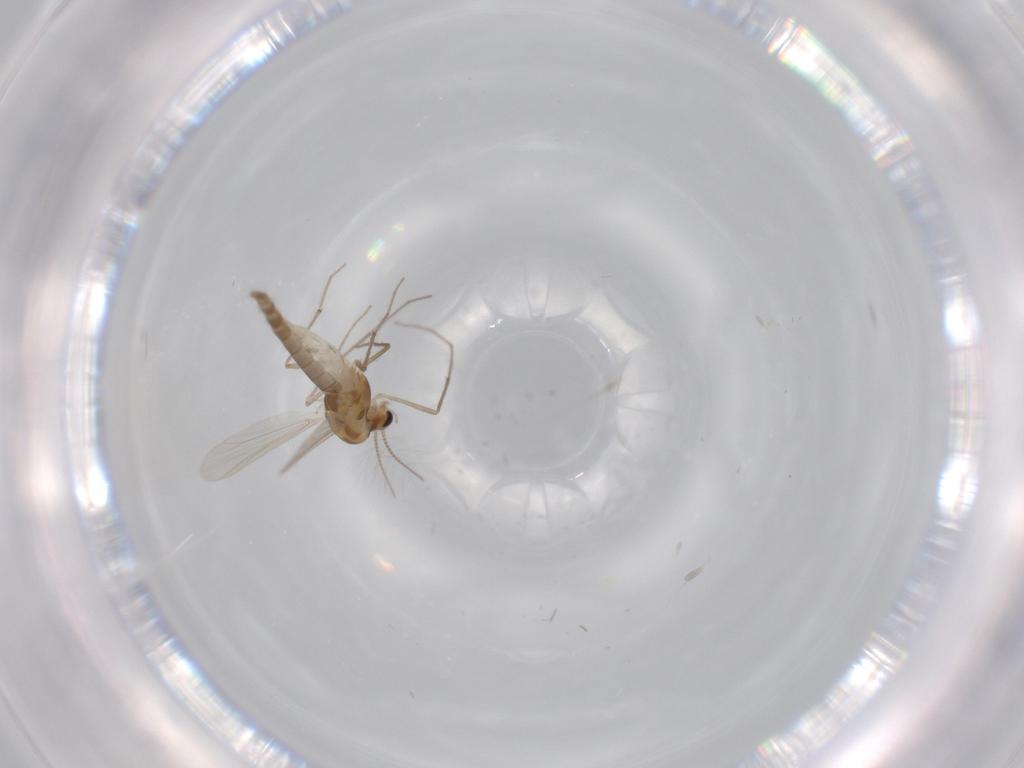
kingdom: Animalia
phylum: Arthropoda
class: Insecta
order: Diptera
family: Chironomidae
